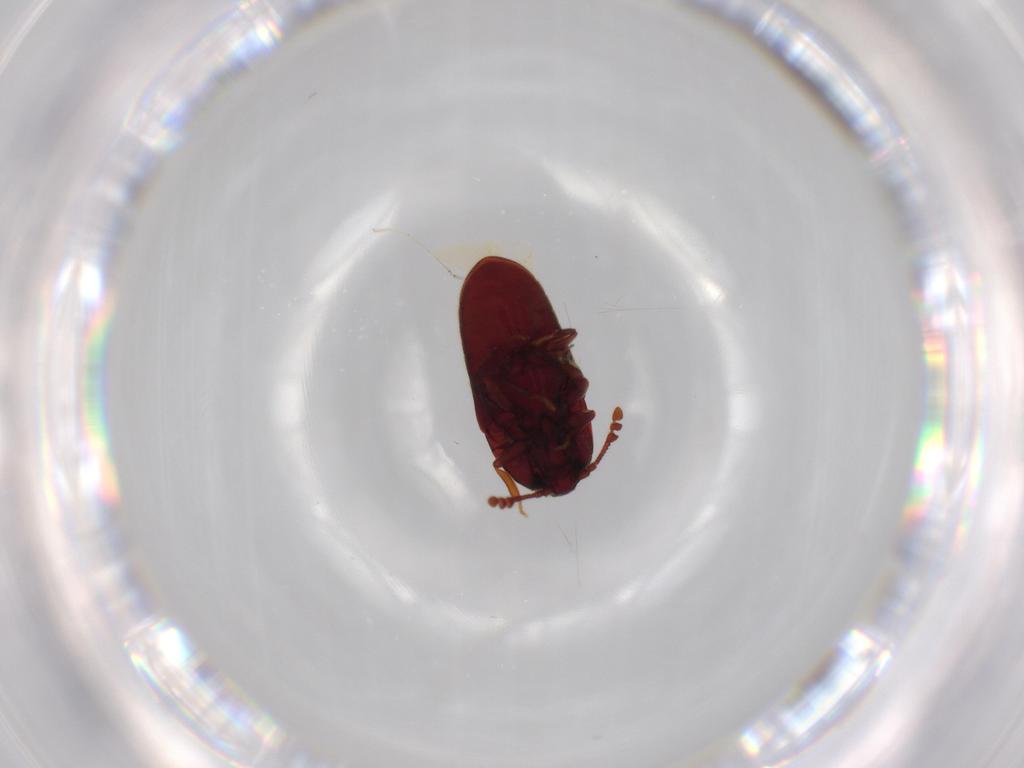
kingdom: Animalia
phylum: Arthropoda
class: Insecta
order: Coleoptera
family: Throscidae
